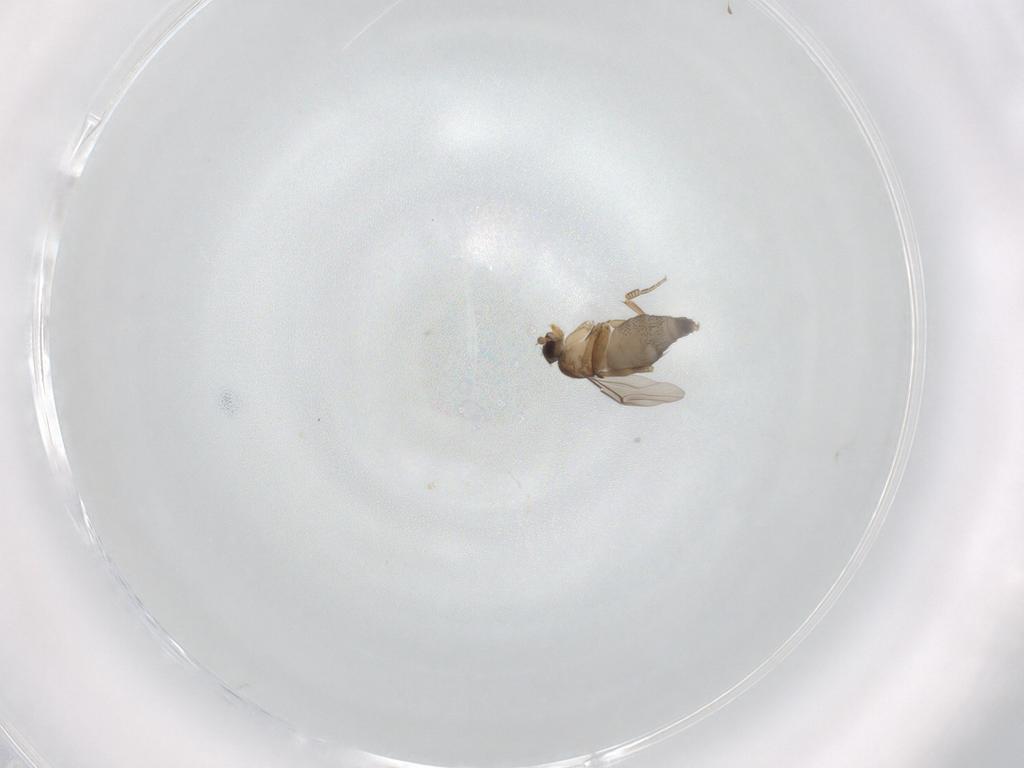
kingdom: Animalia
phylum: Arthropoda
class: Insecta
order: Diptera
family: Phoridae
